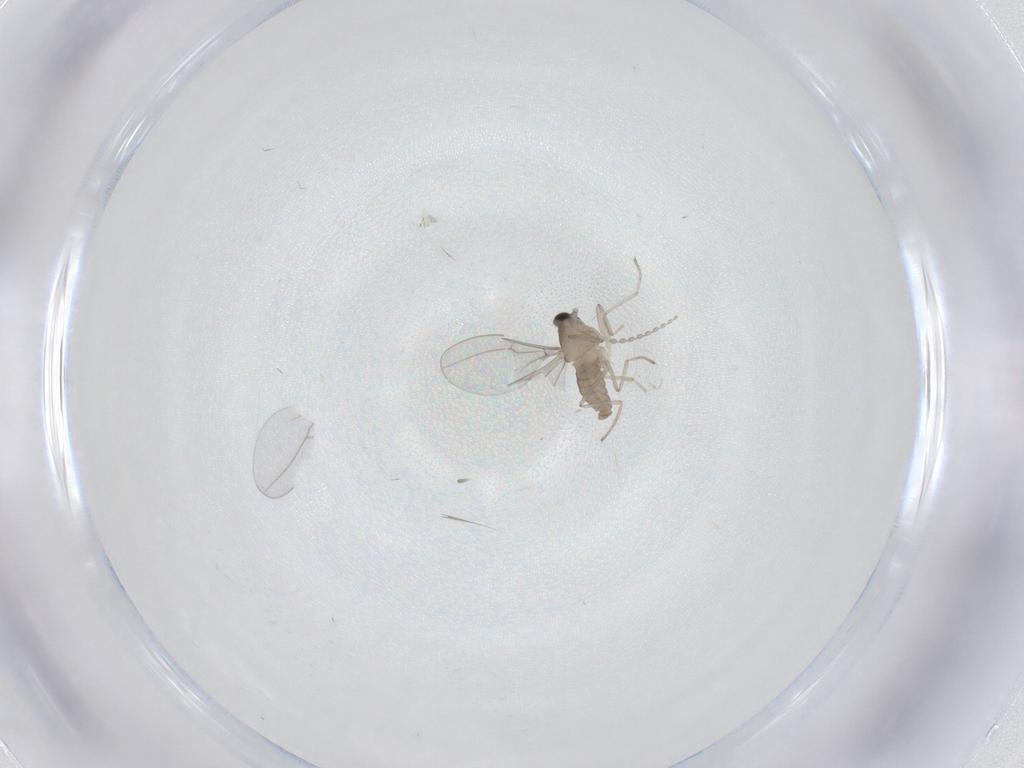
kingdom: Animalia
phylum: Arthropoda
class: Insecta
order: Diptera
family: Cecidomyiidae
